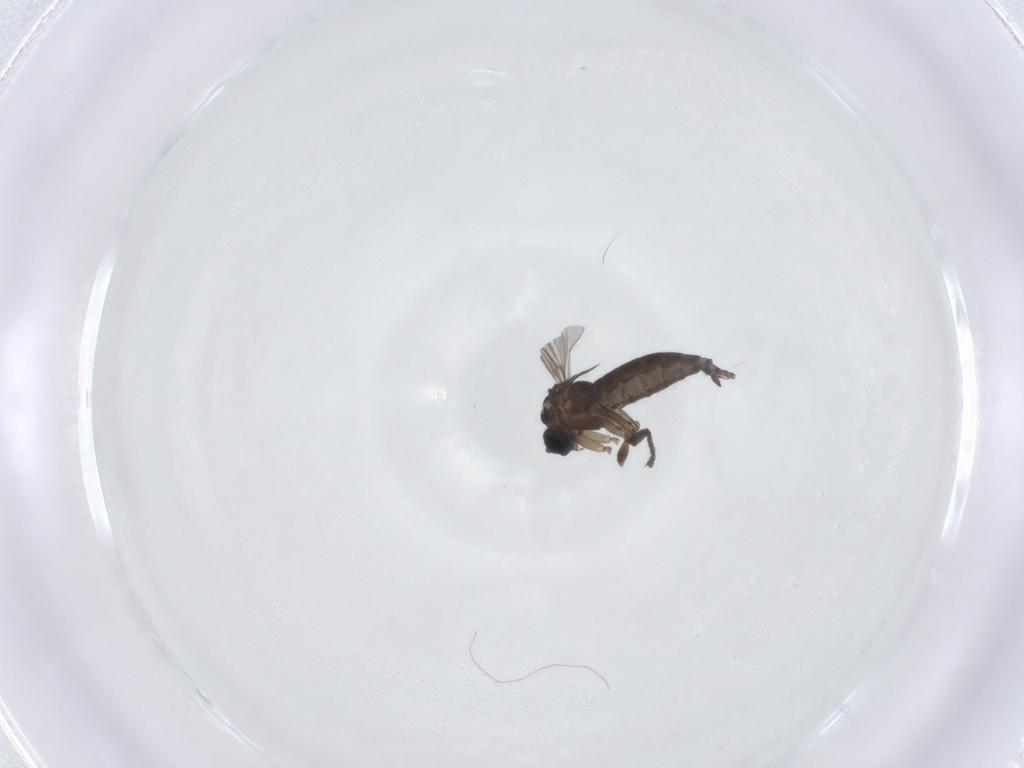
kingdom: Animalia
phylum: Arthropoda
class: Insecta
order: Diptera
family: Sciaridae
